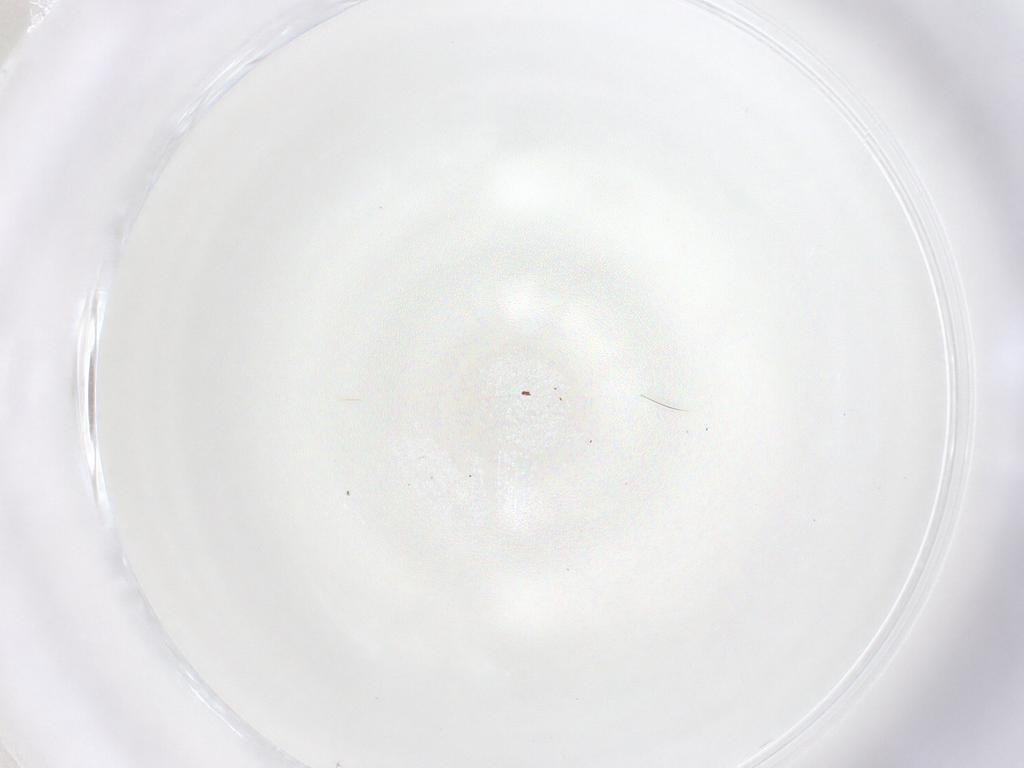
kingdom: Animalia
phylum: Arthropoda
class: Insecta
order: Diptera
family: Cecidomyiidae
